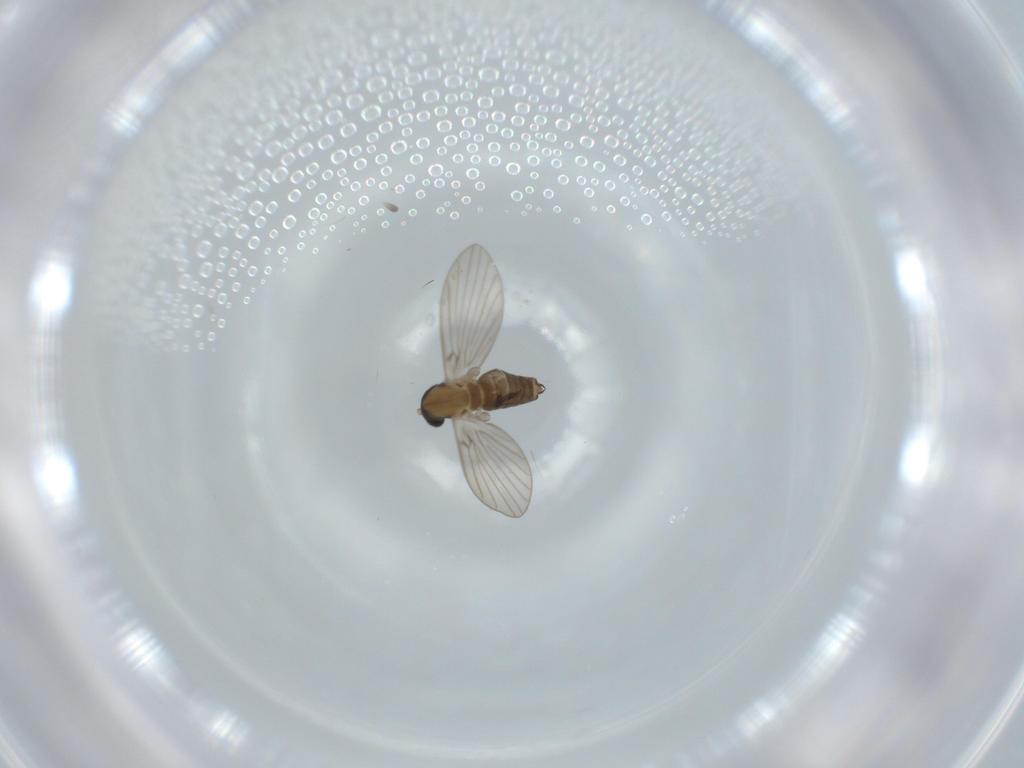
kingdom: Animalia
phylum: Arthropoda
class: Insecta
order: Diptera
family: Psychodidae
